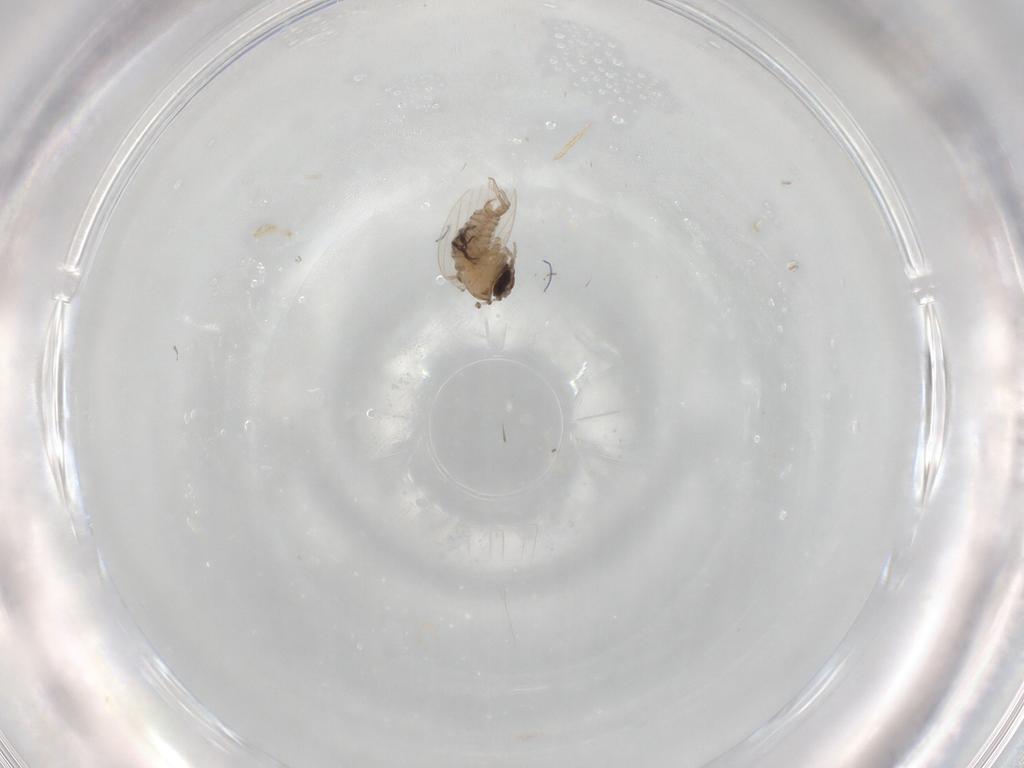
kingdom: Animalia
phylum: Arthropoda
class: Insecta
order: Diptera
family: Psychodidae
